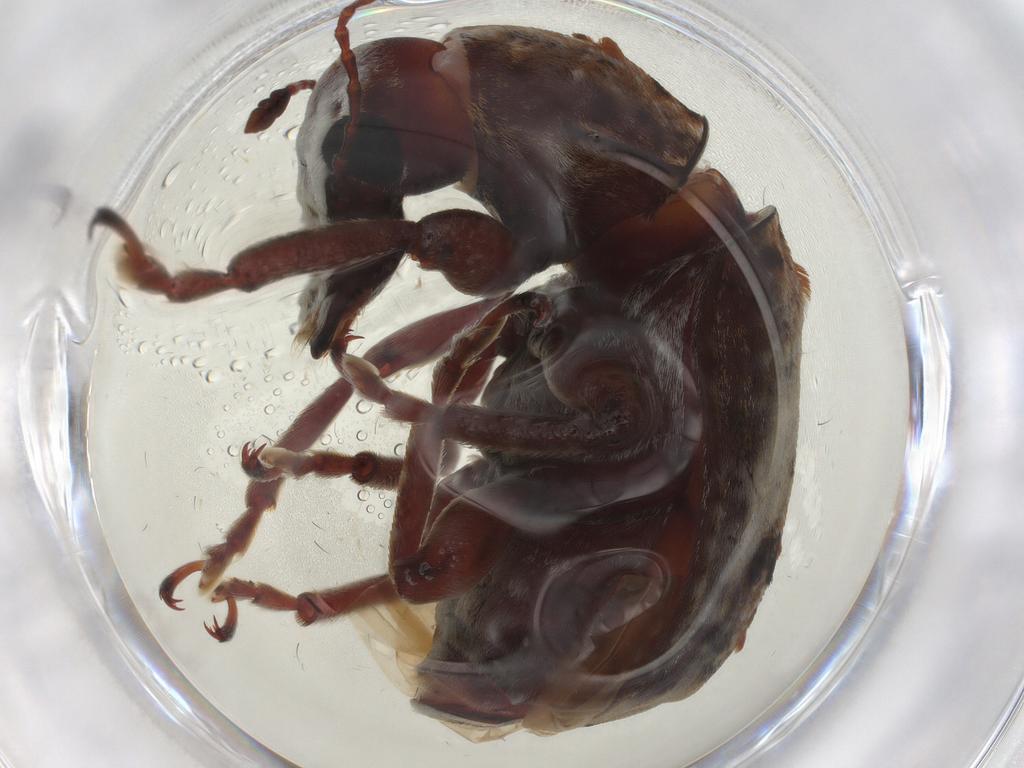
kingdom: Animalia
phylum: Arthropoda
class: Insecta
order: Coleoptera
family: Anthribidae
